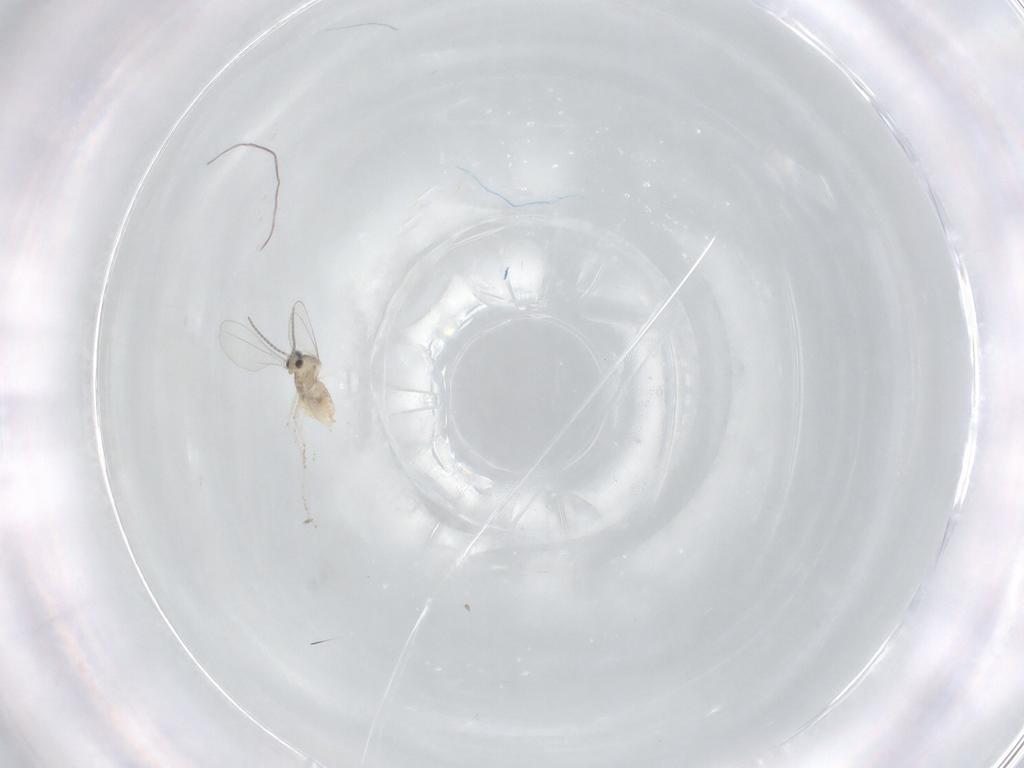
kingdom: Animalia
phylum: Arthropoda
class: Insecta
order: Diptera
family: Cecidomyiidae
